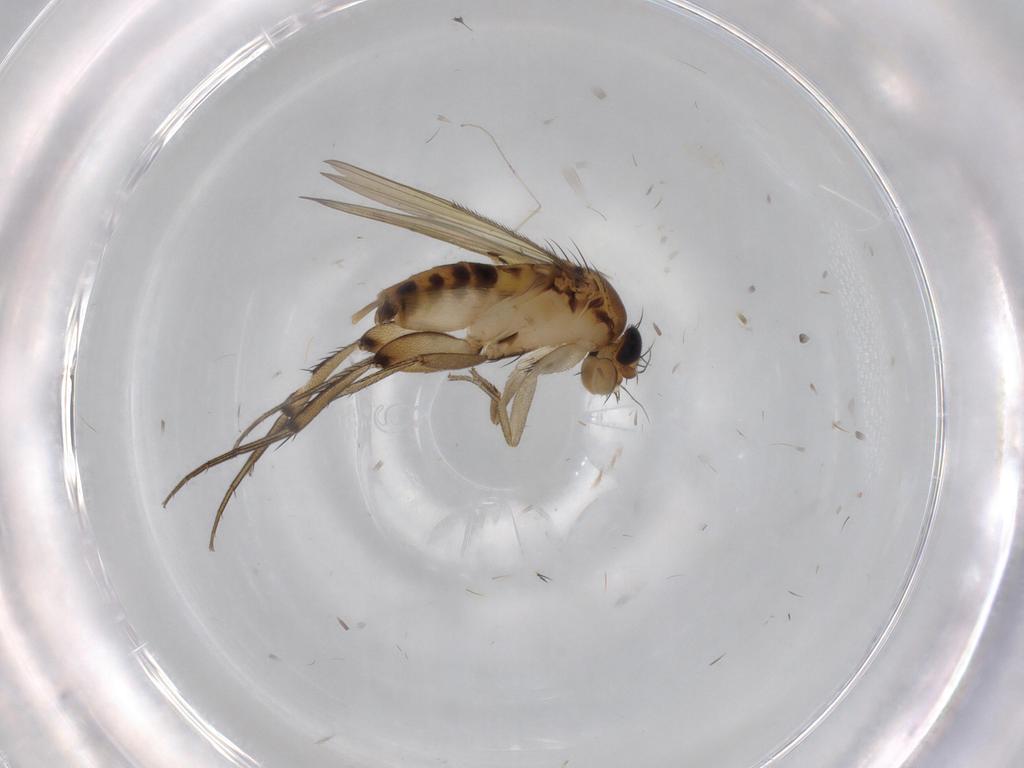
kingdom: Animalia
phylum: Arthropoda
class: Insecta
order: Diptera
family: Phoridae
